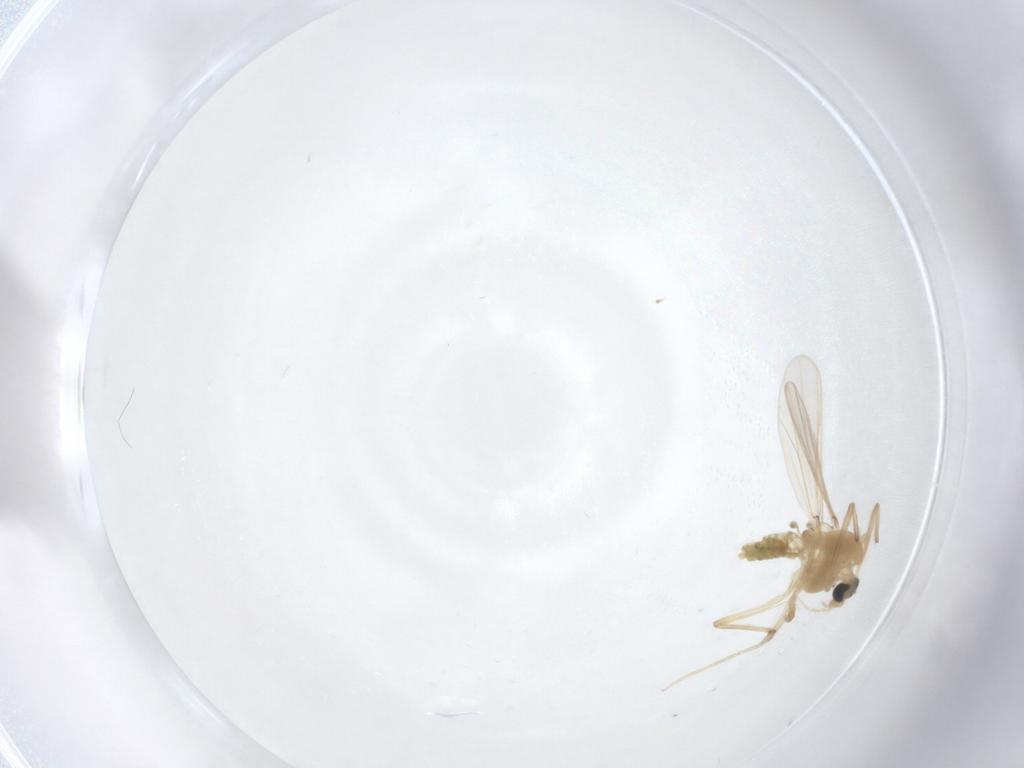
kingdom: Animalia
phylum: Arthropoda
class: Insecta
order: Diptera
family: Chironomidae
